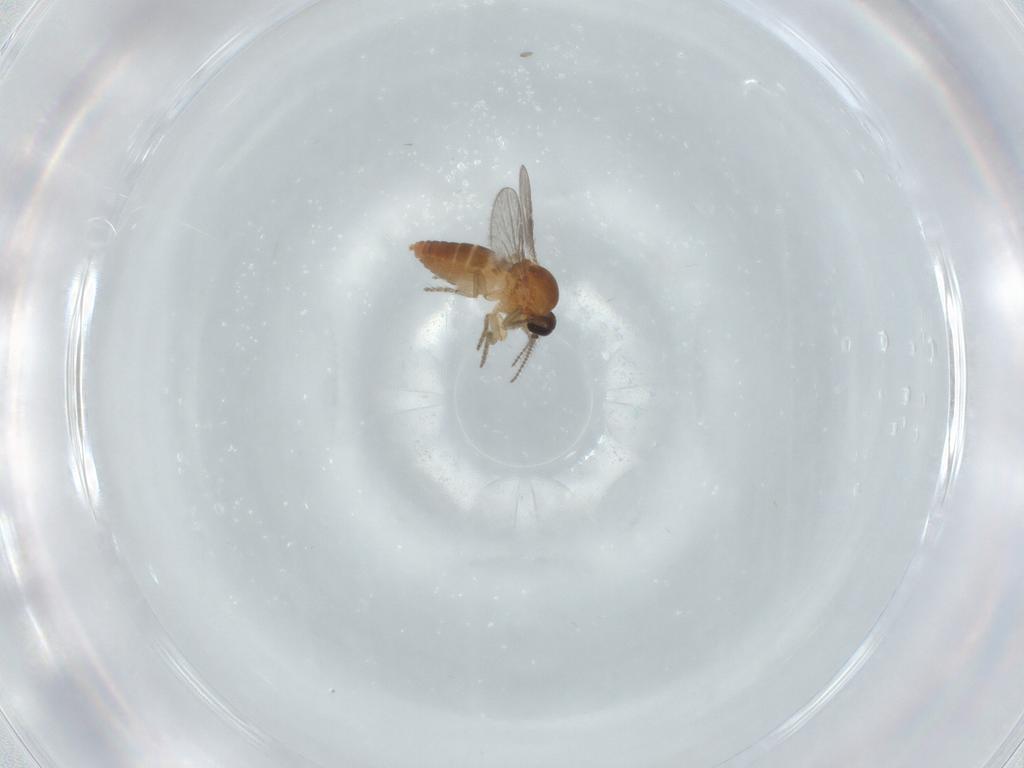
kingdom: Animalia
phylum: Arthropoda
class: Insecta
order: Diptera
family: Ceratopogonidae
